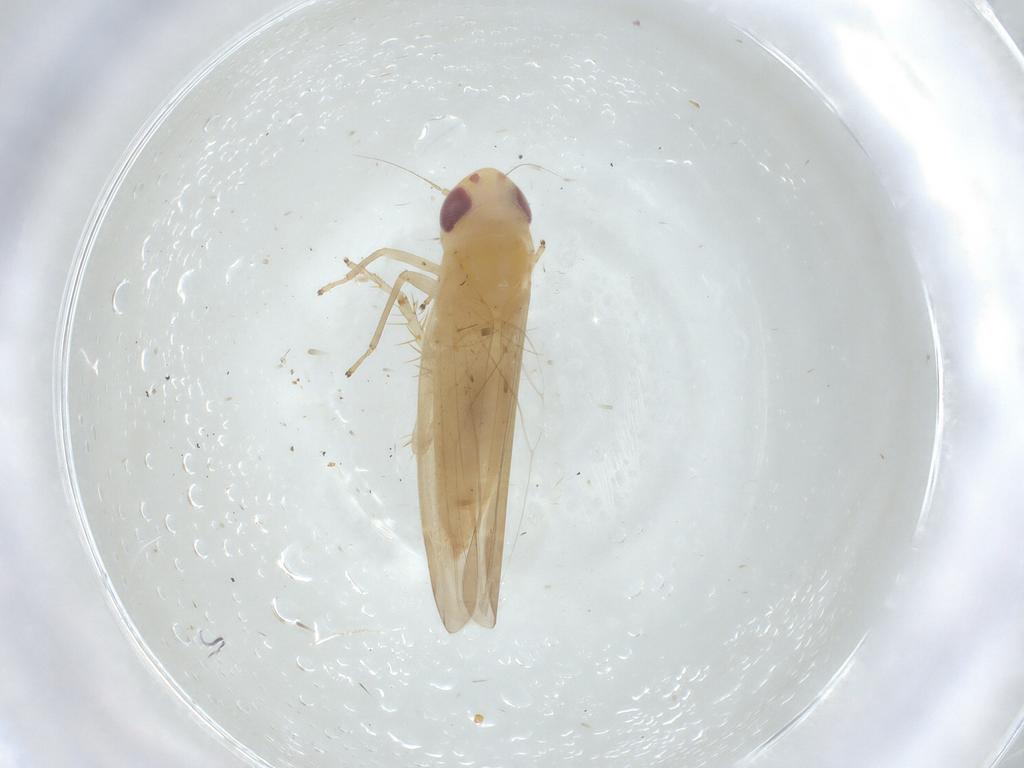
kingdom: Animalia
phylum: Arthropoda
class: Insecta
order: Hemiptera
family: Cicadellidae
